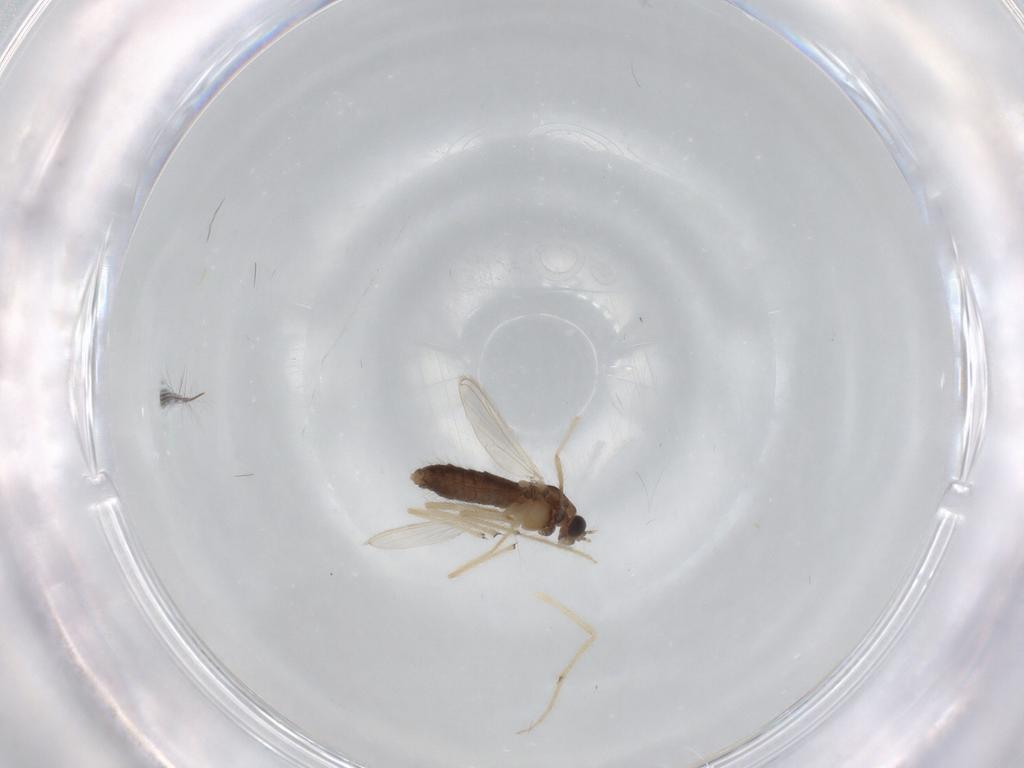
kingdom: Animalia
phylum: Arthropoda
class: Insecta
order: Diptera
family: Chironomidae
